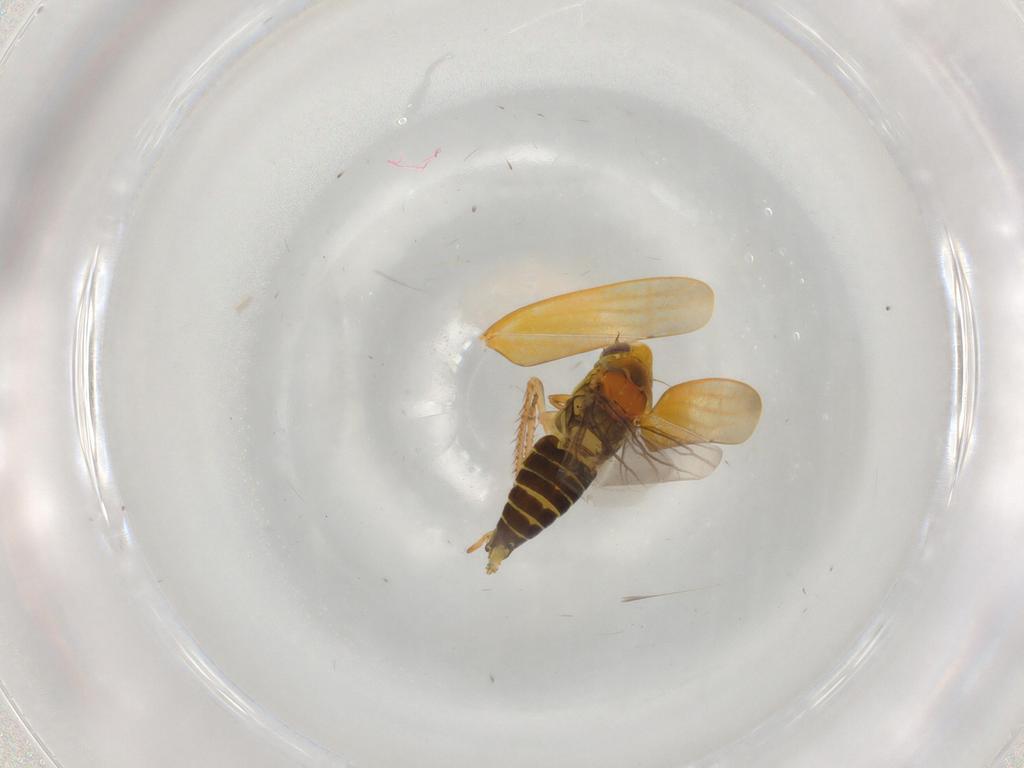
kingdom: Animalia
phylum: Arthropoda
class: Insecta
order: Hemiptera
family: Cicadellidae
